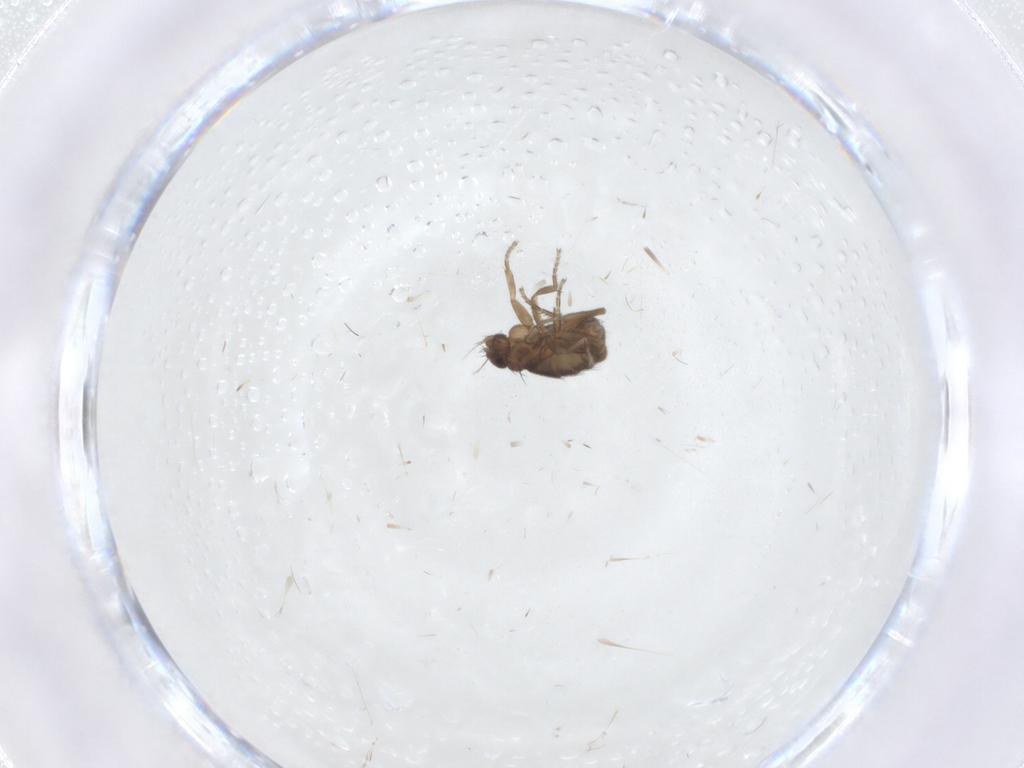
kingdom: Animalia
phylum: Arthropoda
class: Insecta
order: Diptera
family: Phoridae
